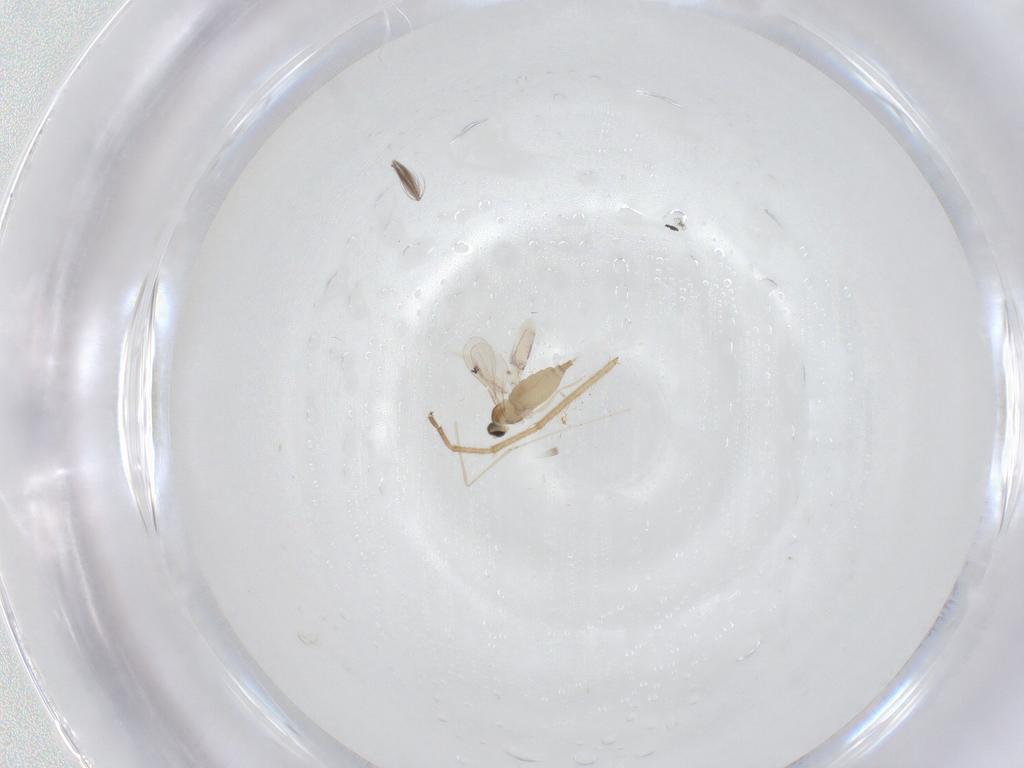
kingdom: Animalia
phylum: Arthropoda
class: Insecta
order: Diptera
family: Cecidomyiidae
